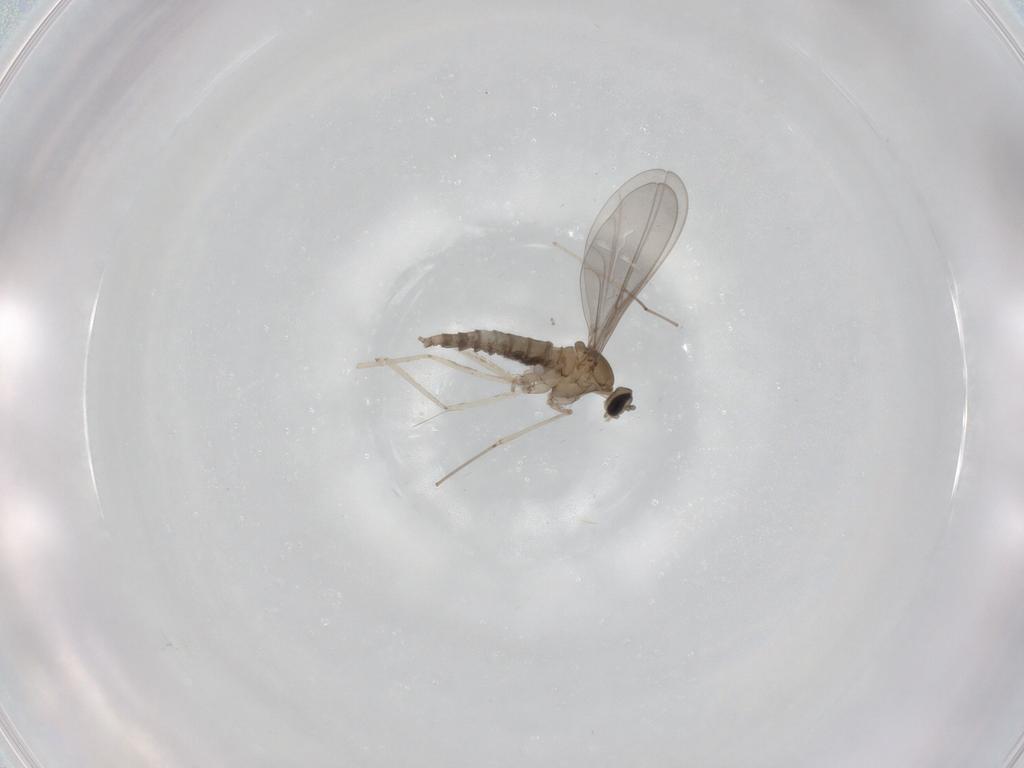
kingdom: Animalia
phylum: Arthropoda
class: Insecta
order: Diptera
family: Cecidomyiidae
